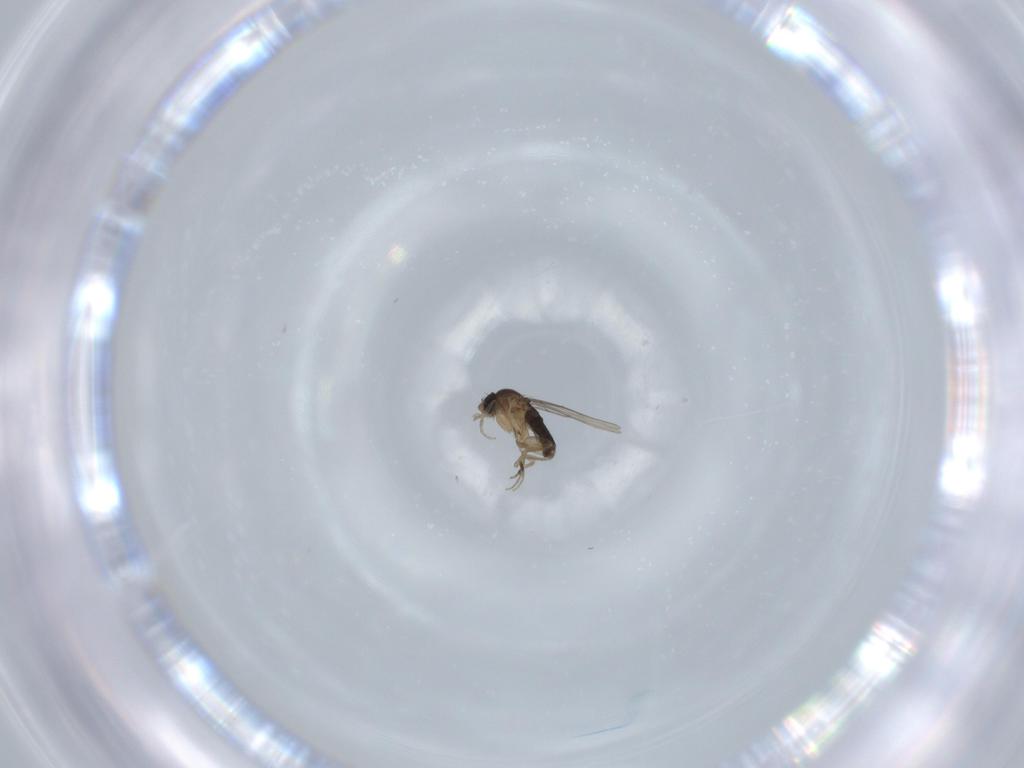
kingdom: Animalia
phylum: Arthropoda
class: Insecta
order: Diptera
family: Phoridae
